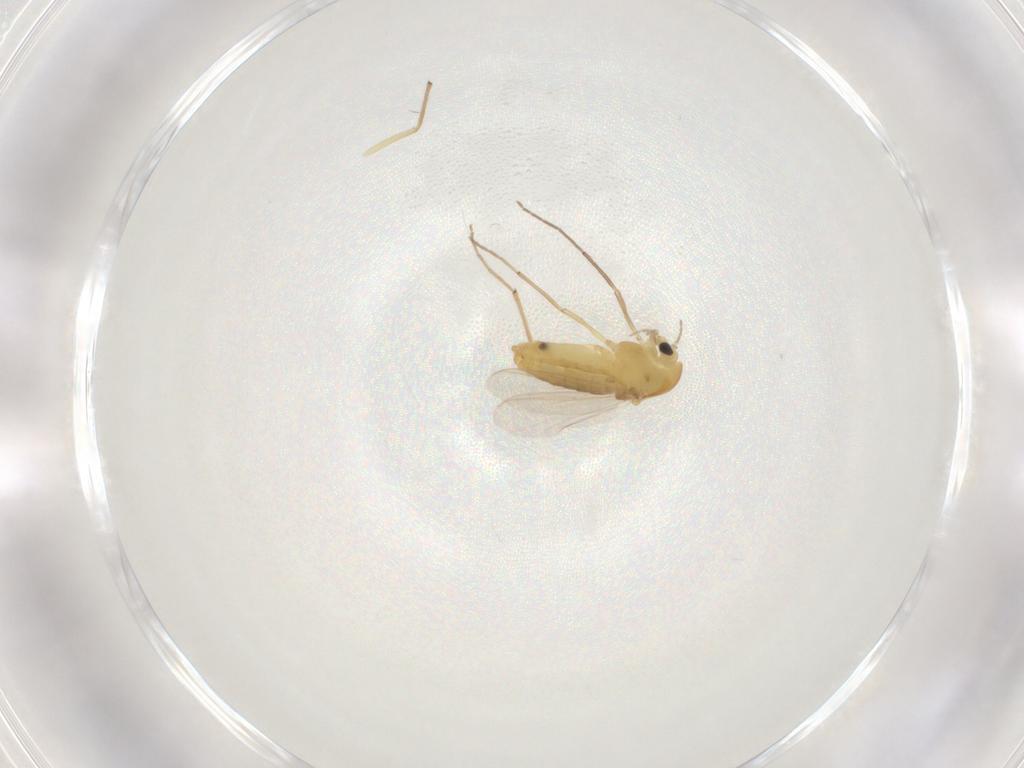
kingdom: Animalia
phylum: Arthropoda
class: Insecta
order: Diptera
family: Chironomidae
